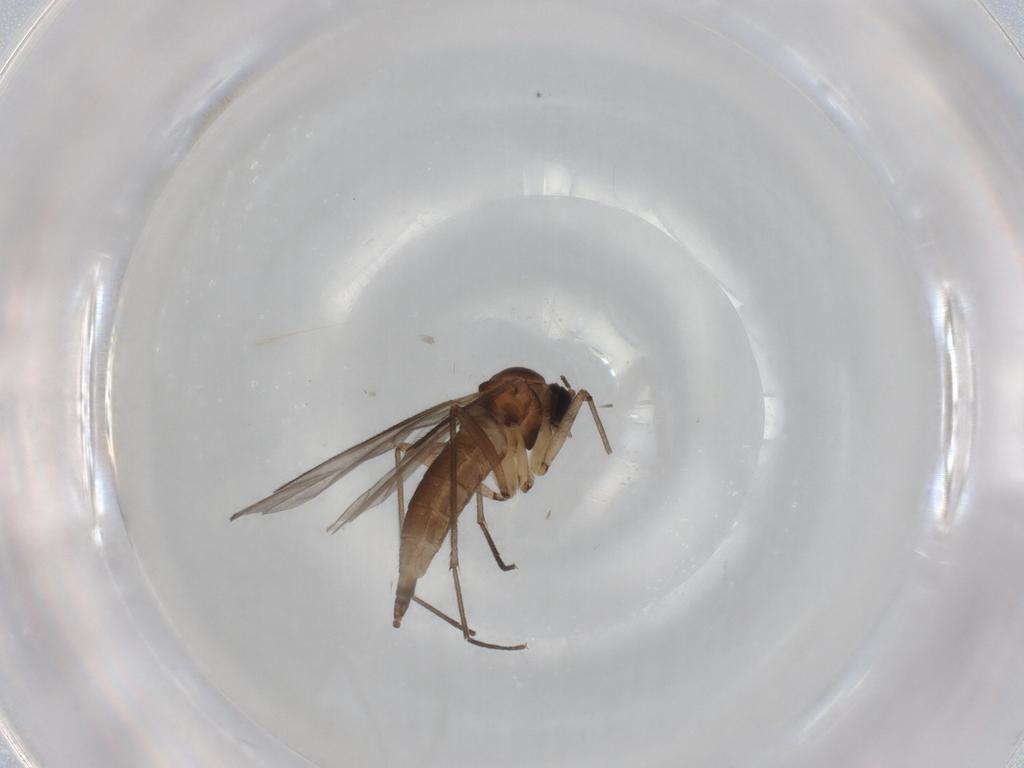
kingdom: Animalia
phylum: Arthropoda
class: Insecta
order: Diptera
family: Sciaridae
